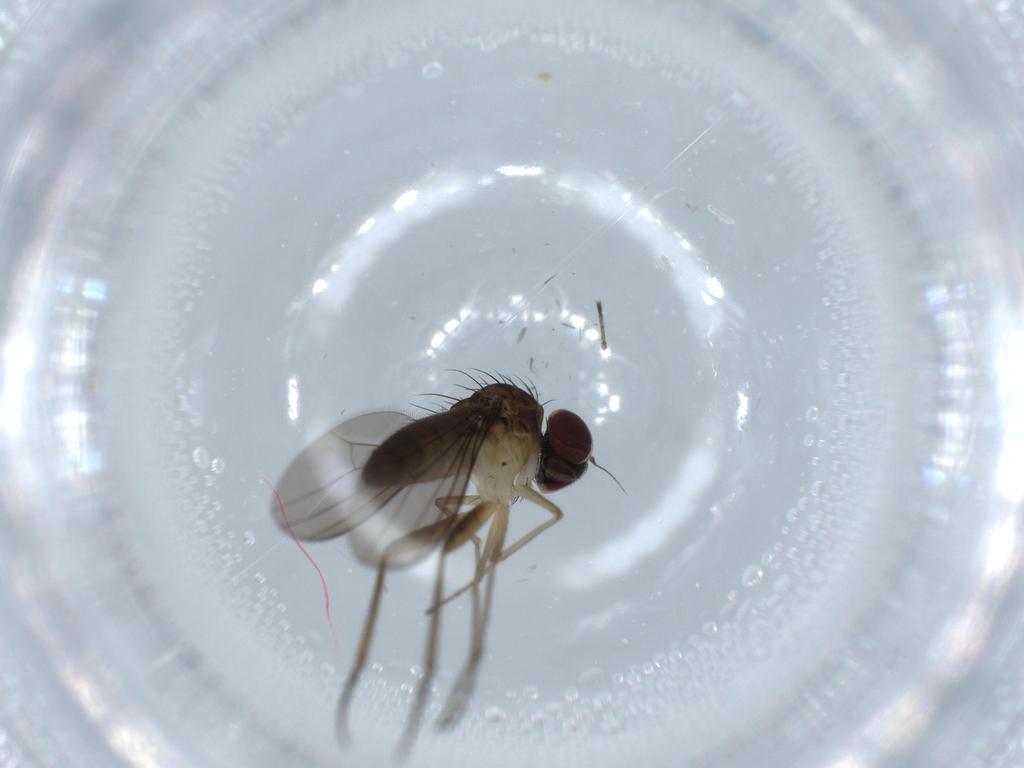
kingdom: Animalia
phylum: Arthropoda
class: Insecta
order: Diptera
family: Dolichopodidae
